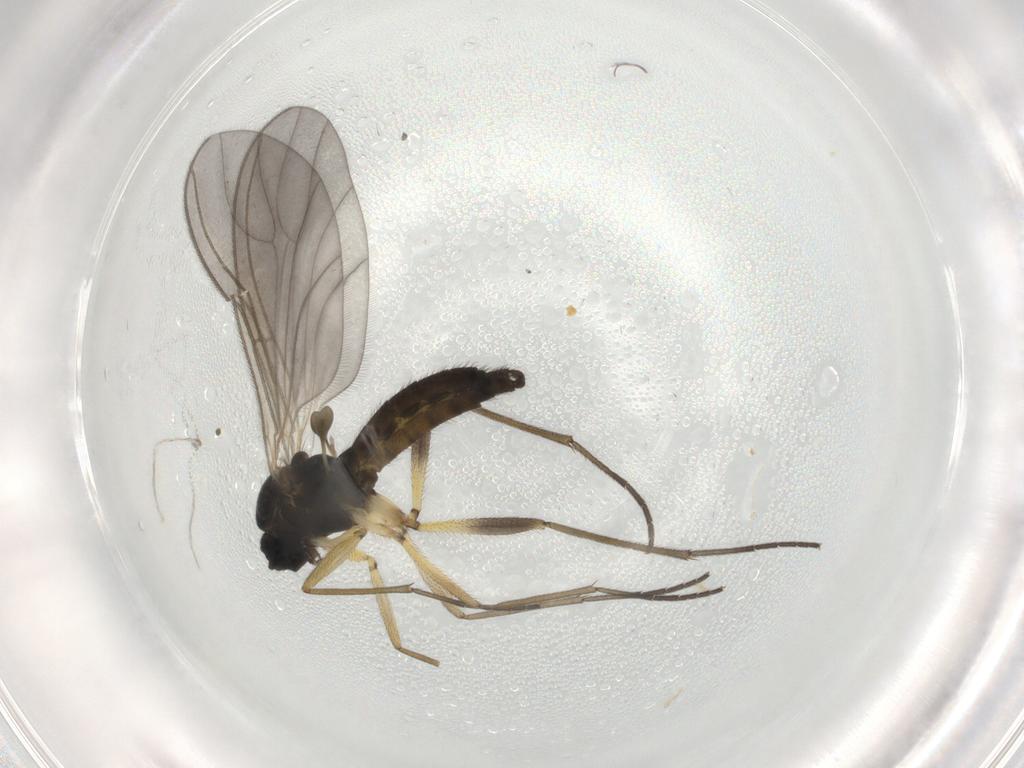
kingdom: Animalia
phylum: Arthropoda
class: Insecta
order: Diptera
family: Sciaridae
